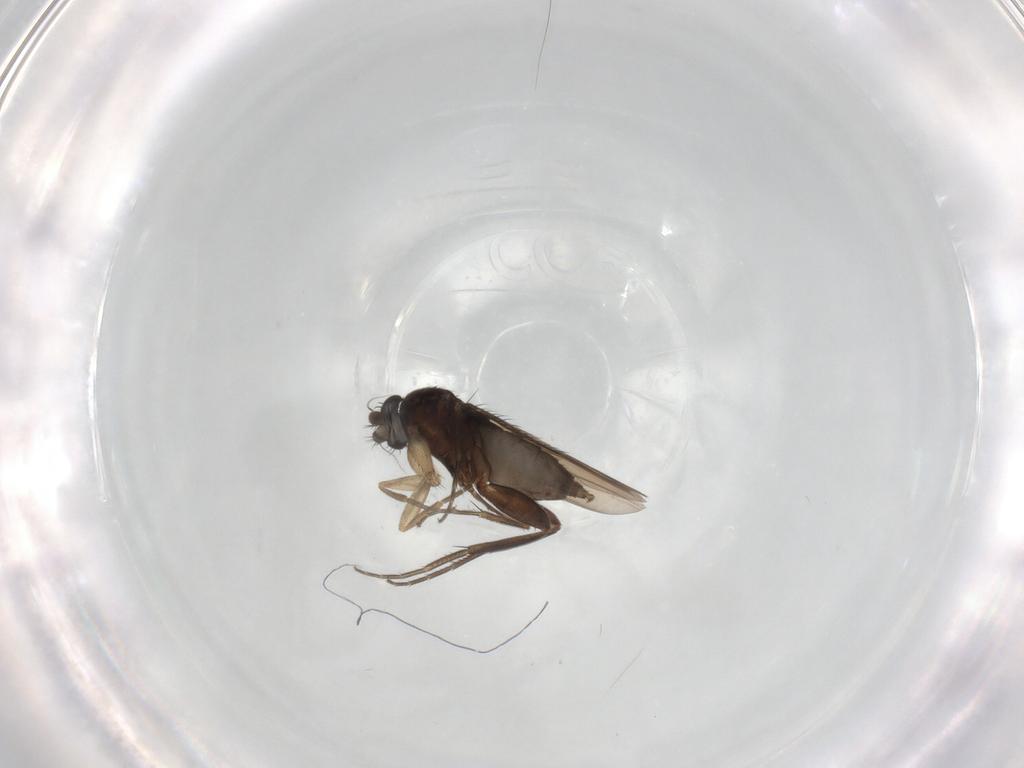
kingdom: Animalia
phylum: Arthropoda
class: Insecta
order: Diptera
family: Phoridae
